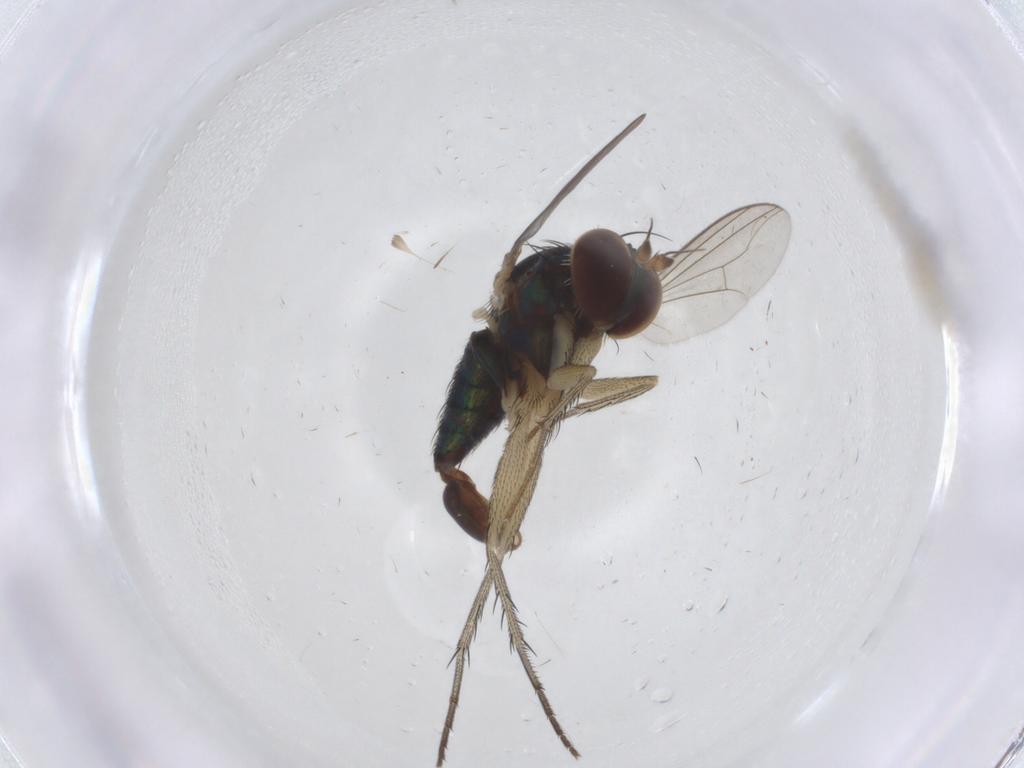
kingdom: Animalia
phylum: Arthropoda
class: Insecta
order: Diptera
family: Dolichopodidae
